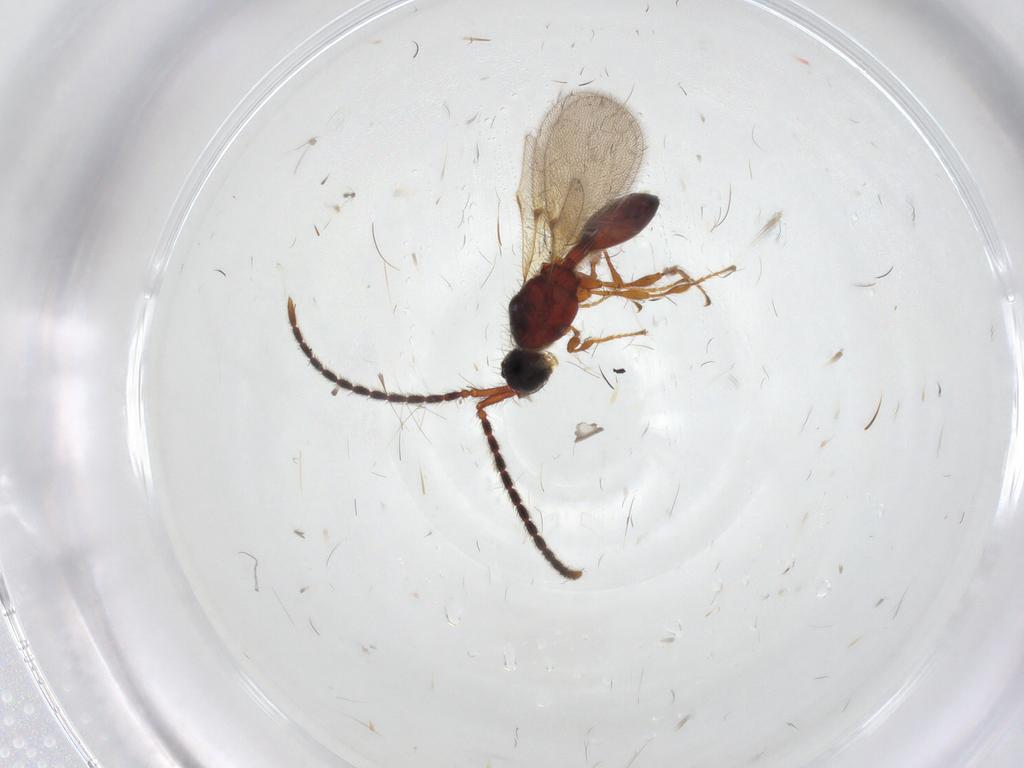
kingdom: Animalia
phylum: Arthropoda
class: Insecta
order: Hymenoptera
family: Diapriidae
